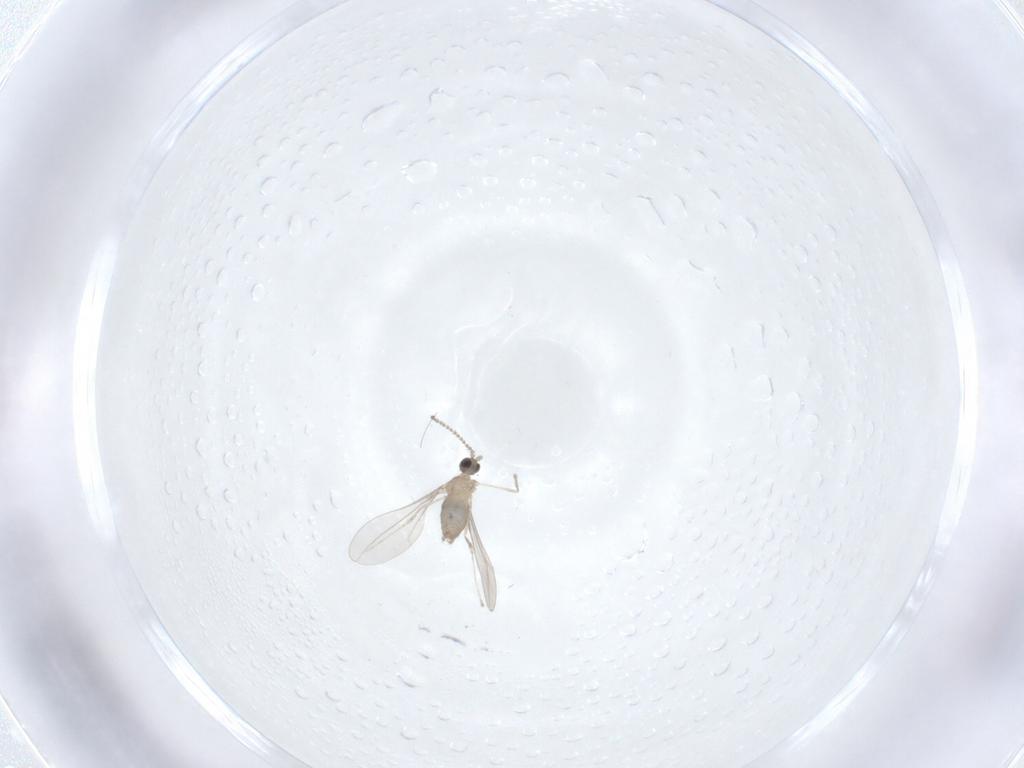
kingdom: Animalia
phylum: Arthropoda
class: Insecta
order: Diptera
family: Cecidomyiidae
